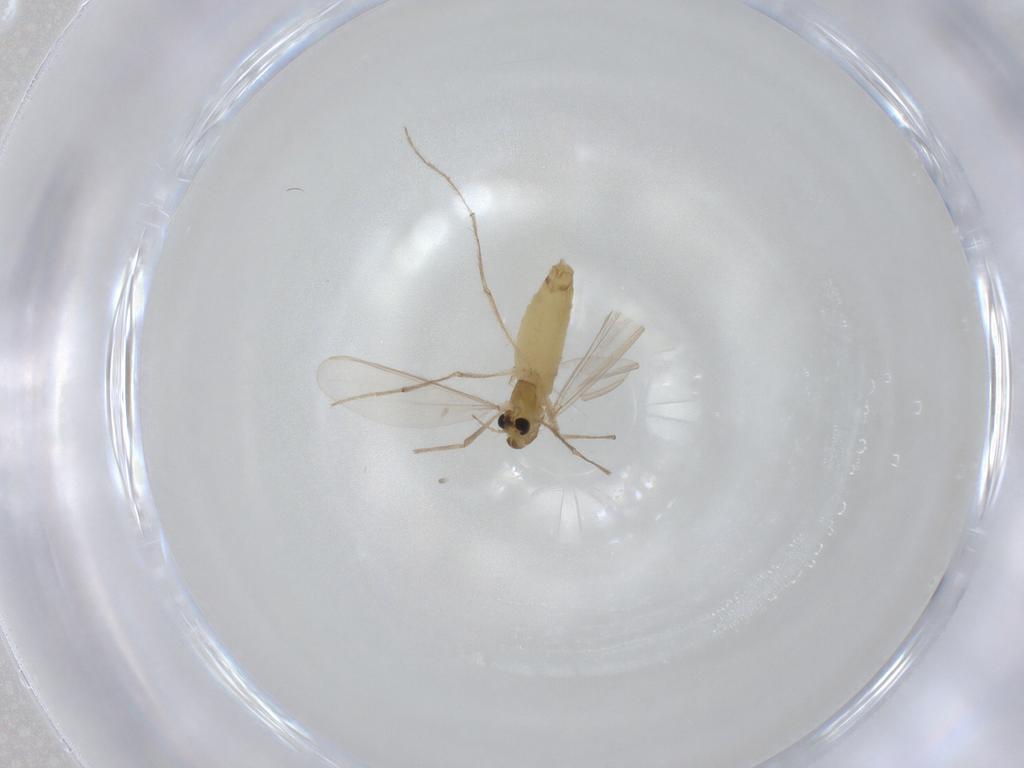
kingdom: Animalia
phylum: Arthropoda
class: Insecta
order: Diptera
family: Chironomidae
